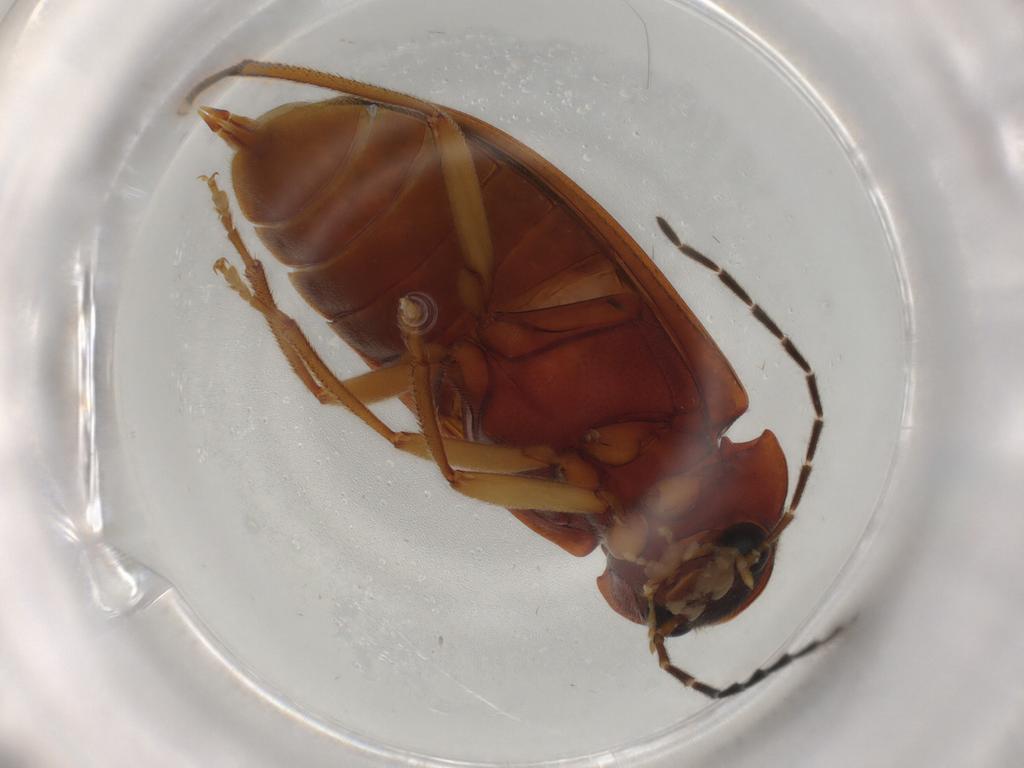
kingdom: Animalia
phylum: Arthropoda
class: Insecta
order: Coleoptera
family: Ptilodactylidae
